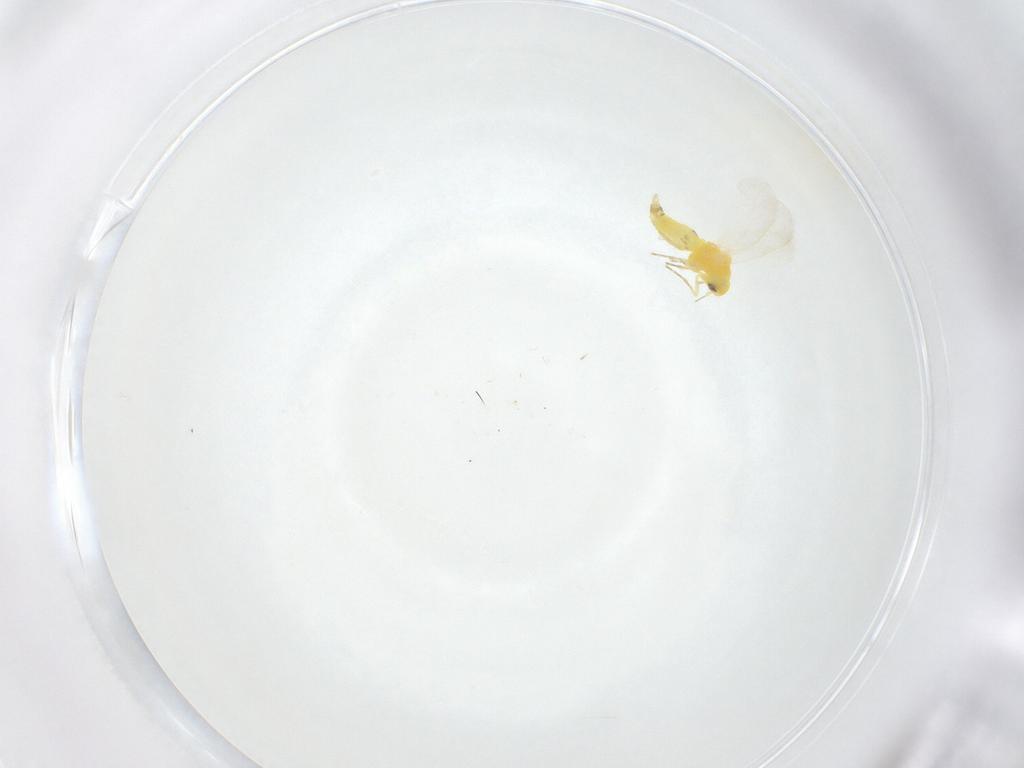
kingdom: Animalia
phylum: Arthropoda
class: Insecta
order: Hemiptera
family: Aleyrodidae
